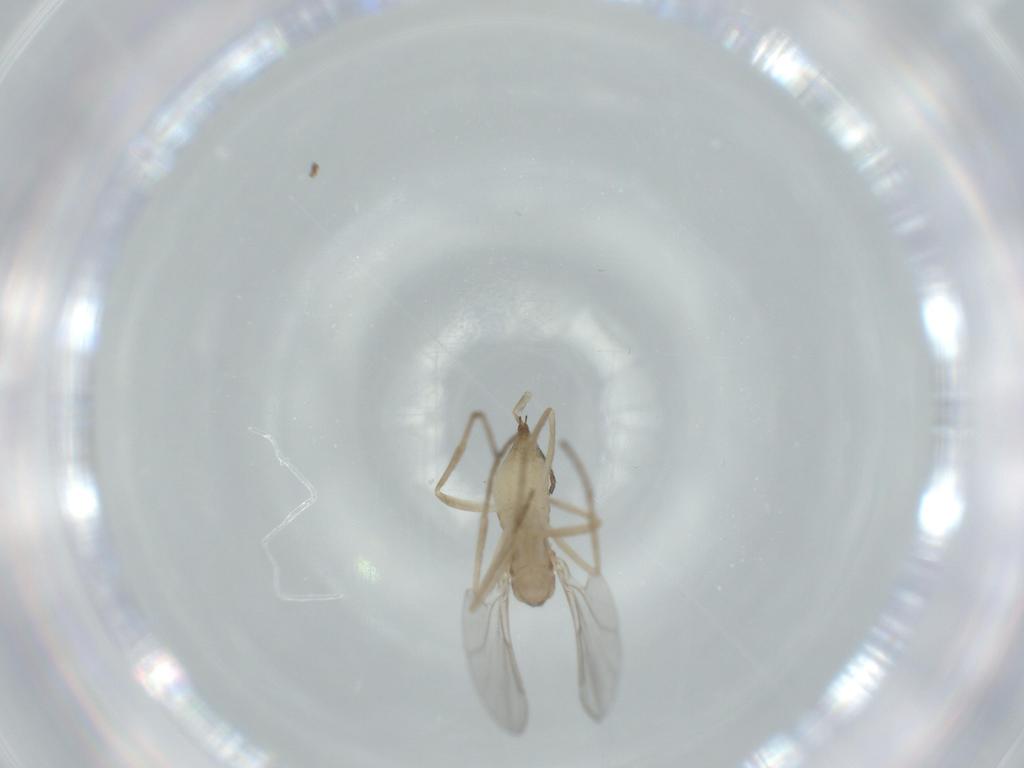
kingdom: Animalia
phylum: Arthropoda
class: Insecta
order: Diptera
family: Cecidomyiidae
